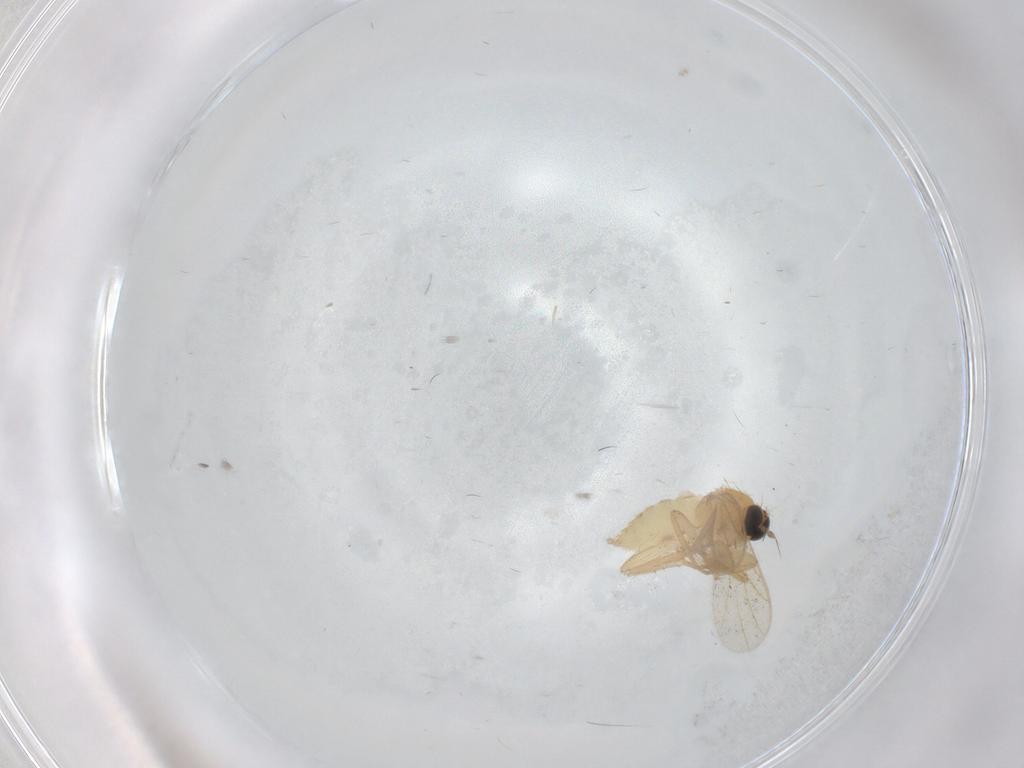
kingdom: Animalia
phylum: Arthropoda
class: Insecta
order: Diptera
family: Hybotidae
